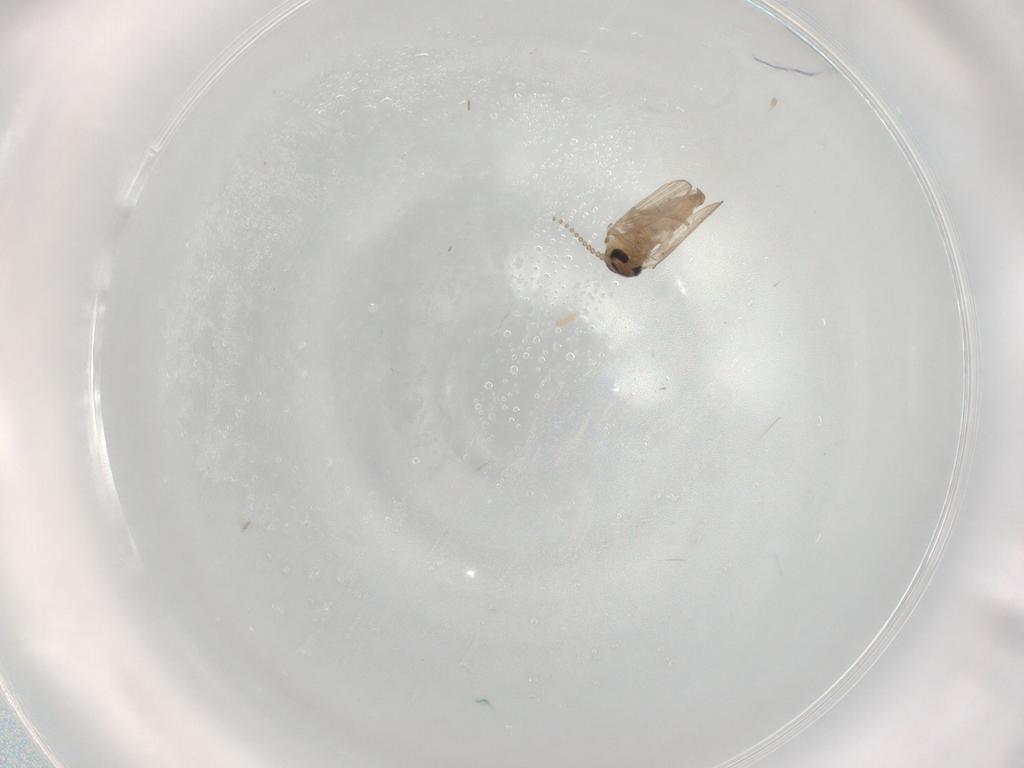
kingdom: Animalia
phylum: Arthropoda
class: Insecta
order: Diptera
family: Psychodidae
